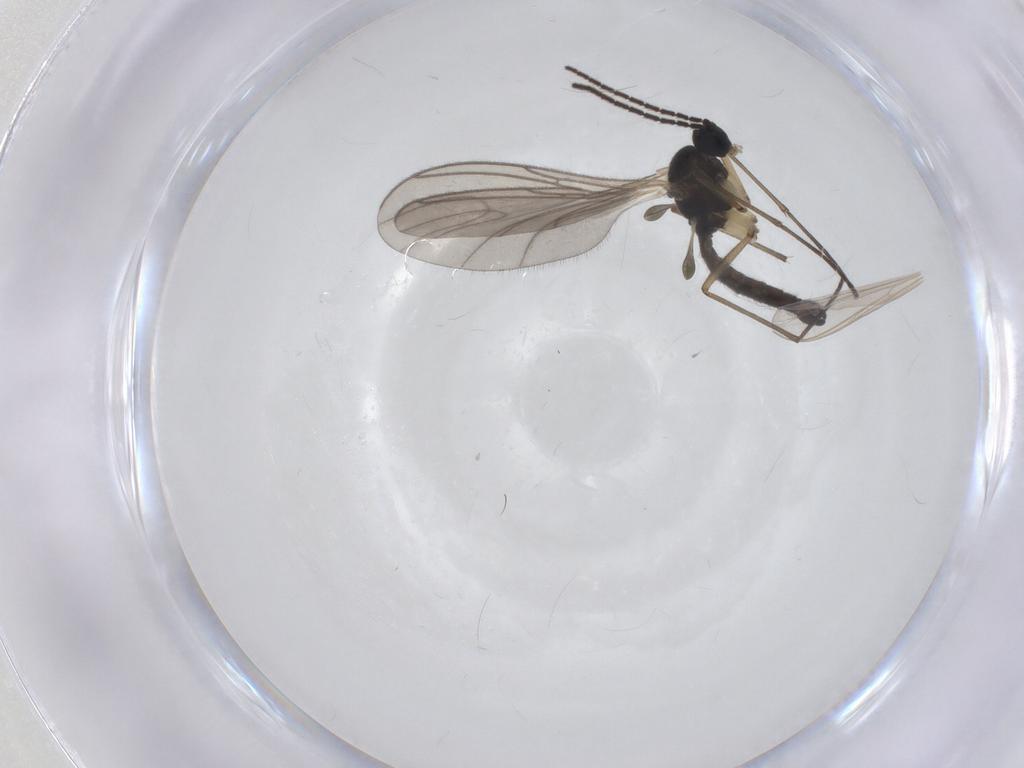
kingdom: Animalia
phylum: Arthropoda
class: Insecta
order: Diptera
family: Sciaridae
